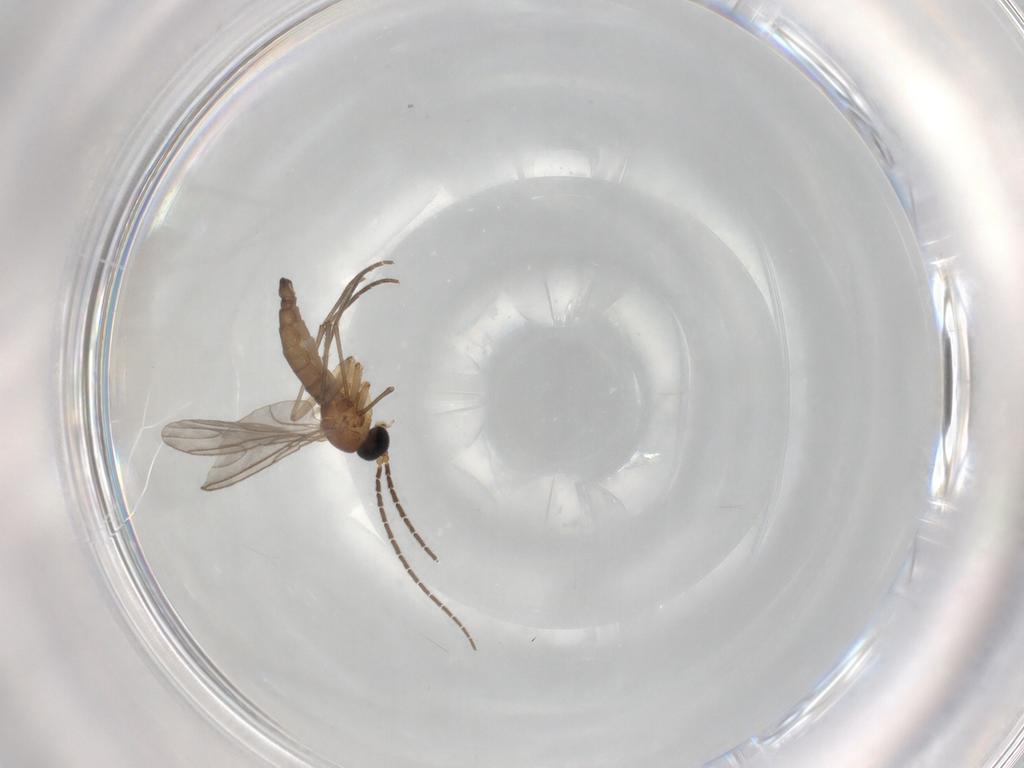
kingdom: Animalia
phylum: Arthropoda
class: Insecta
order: Diptera
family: Sciaridae
